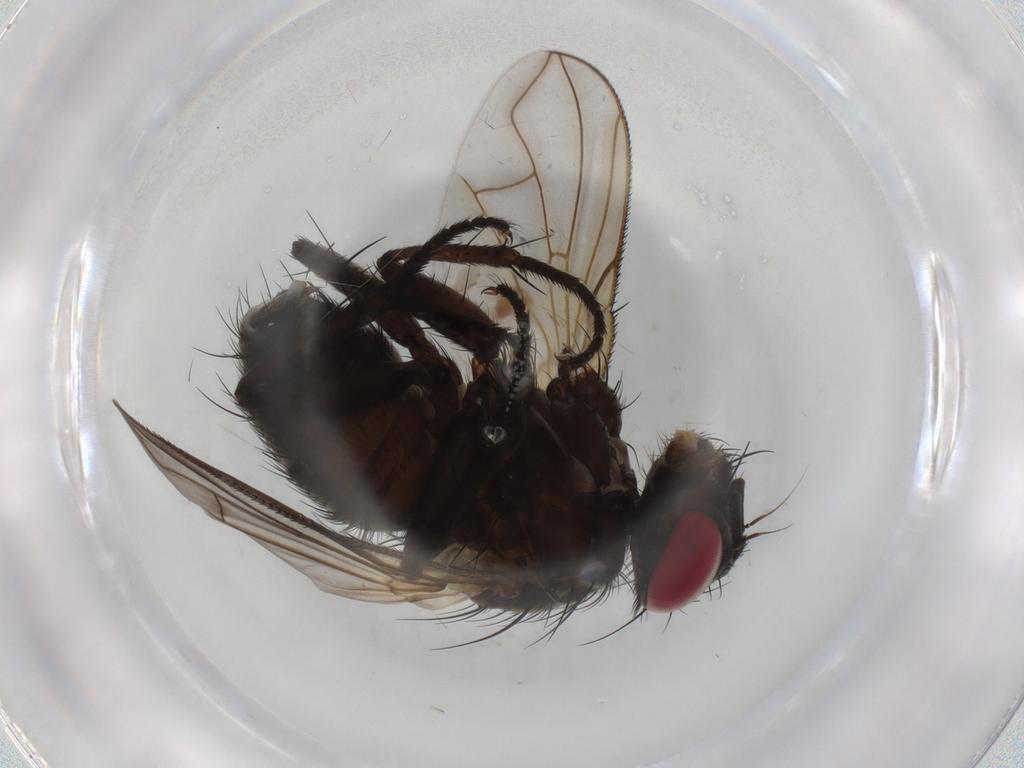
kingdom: Animalia
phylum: Arthropoda
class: Insecta
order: Diptera
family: Tachinidae
